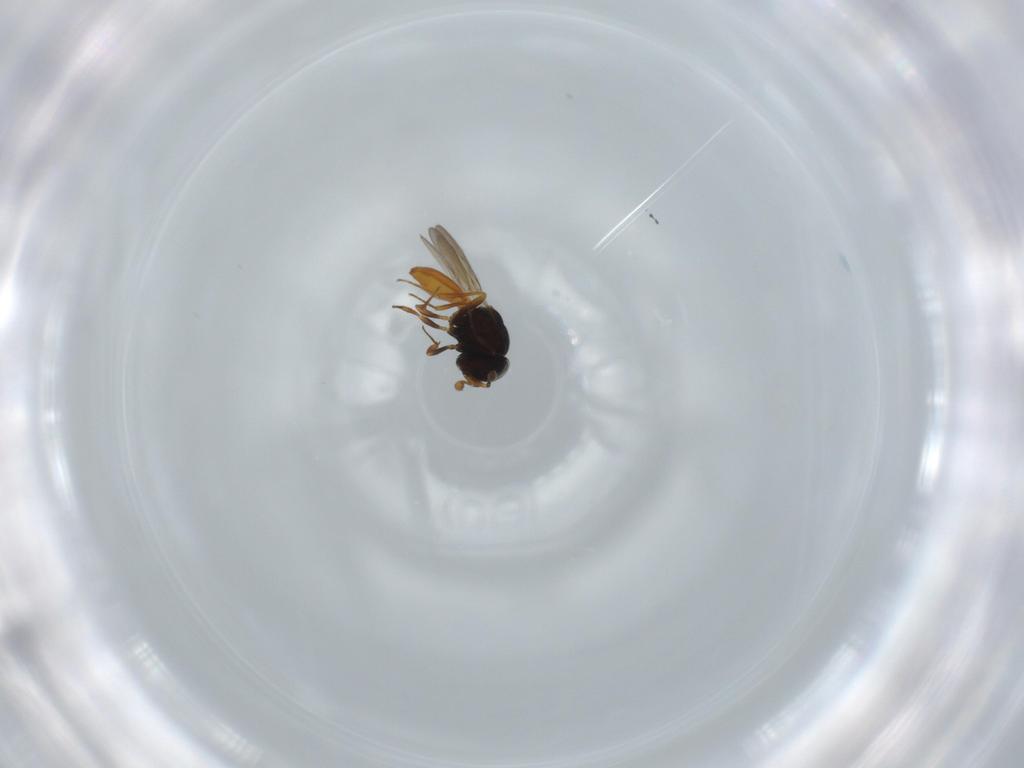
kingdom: Animalia
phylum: Arthropoda
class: Insecta
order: Hymenoptera
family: Scelionidae
